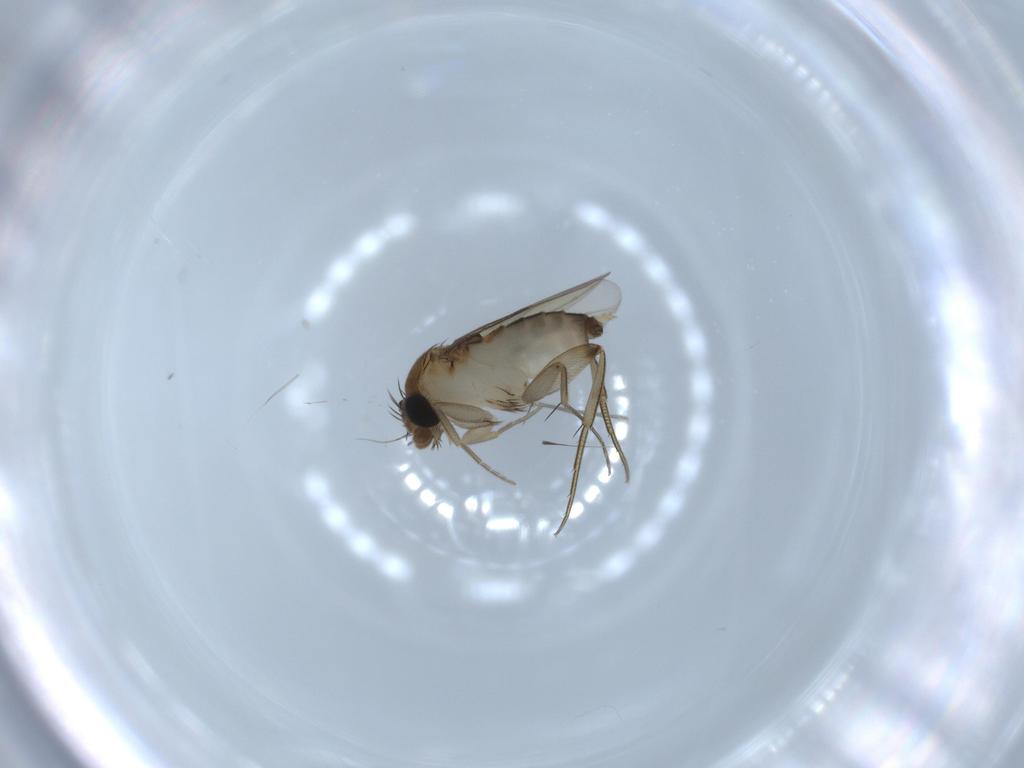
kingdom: Animalia
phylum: Arthropoda
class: Insecta
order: Diptera
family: Phoridae
